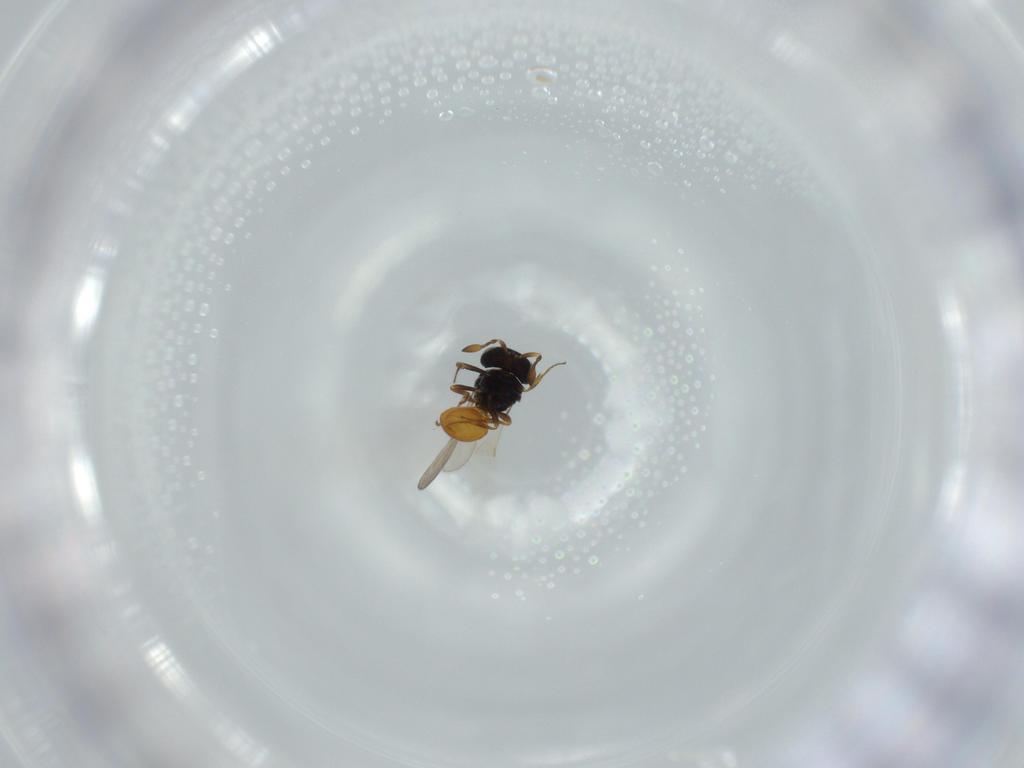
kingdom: Animalia
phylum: Arthropoda
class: Insecta
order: Hymenoptera
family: Scelionidae
